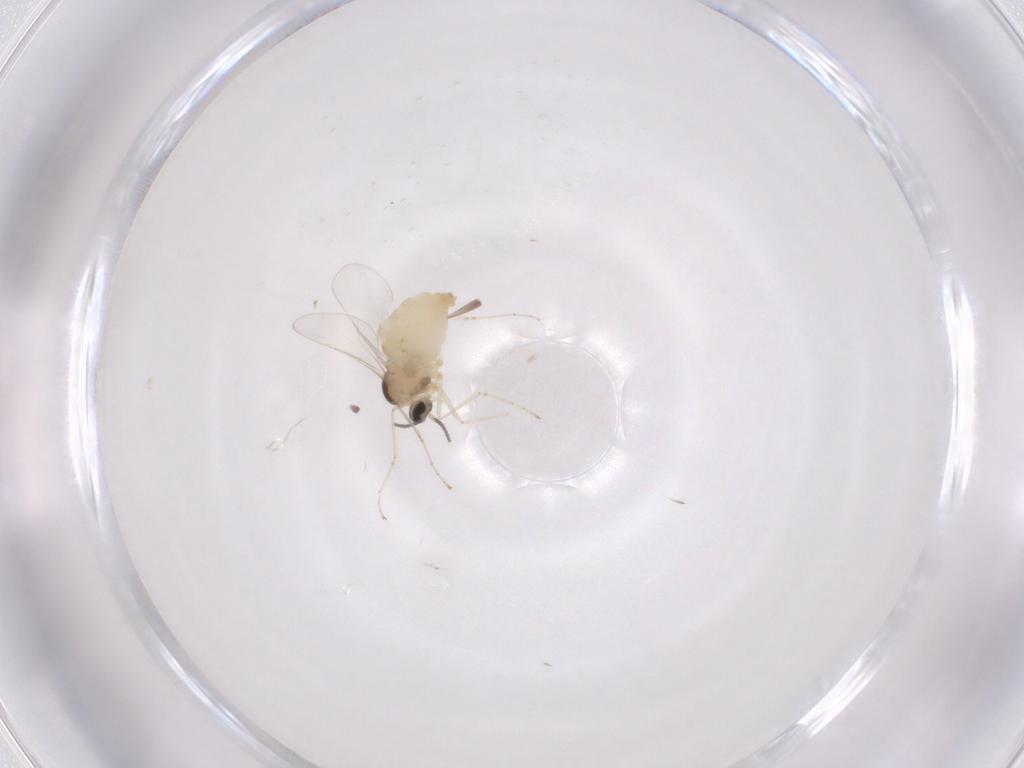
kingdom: Animalia
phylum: Arthropoda
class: Insecta
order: Diptera
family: Cecidomyiidae
